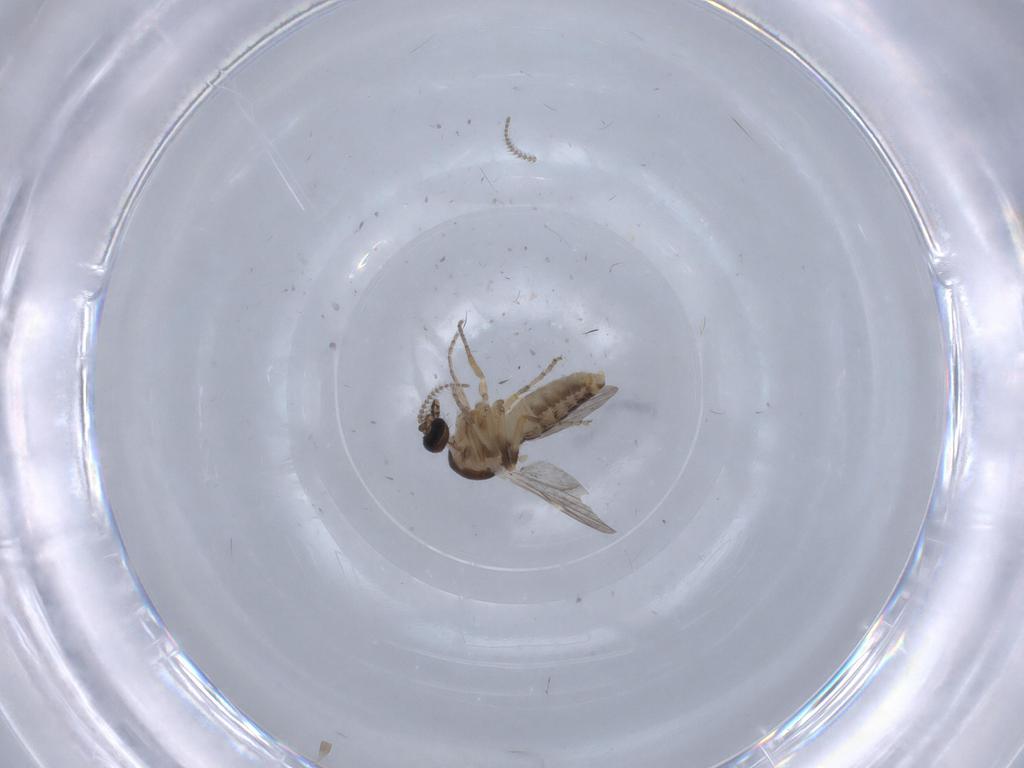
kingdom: Animalia
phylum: Arthropoda
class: Insecta
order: Diptera
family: Ceratopogonidae
